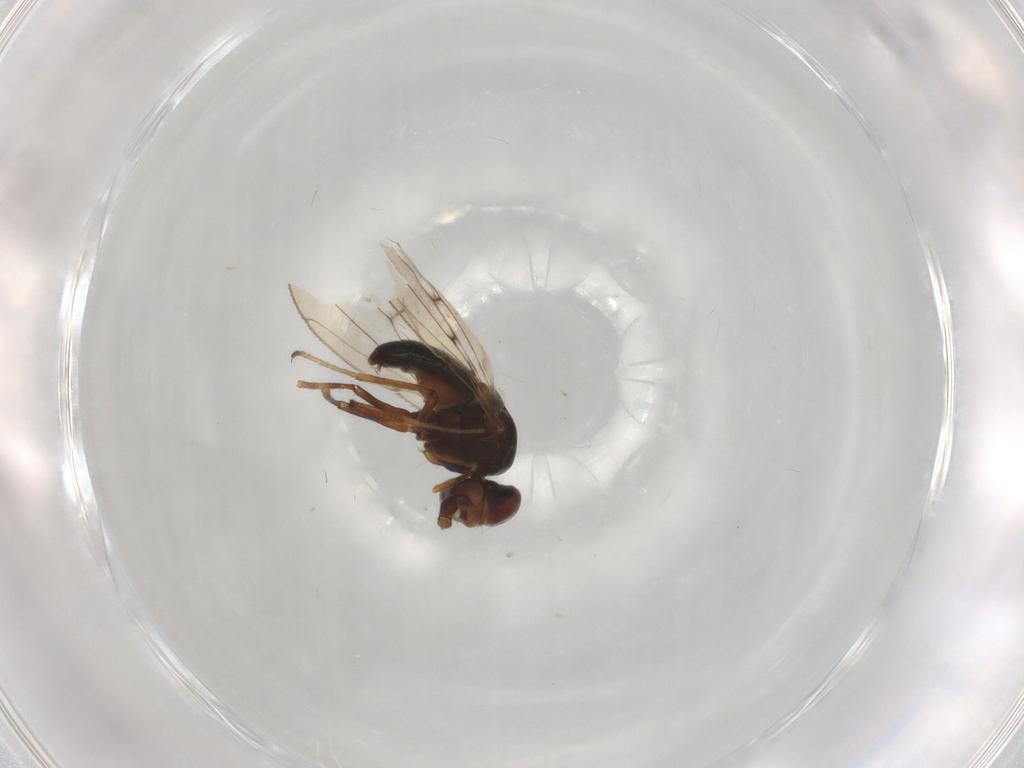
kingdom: Animalia
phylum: Arthropoda
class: Insecta
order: Diptera
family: Ephydridae
